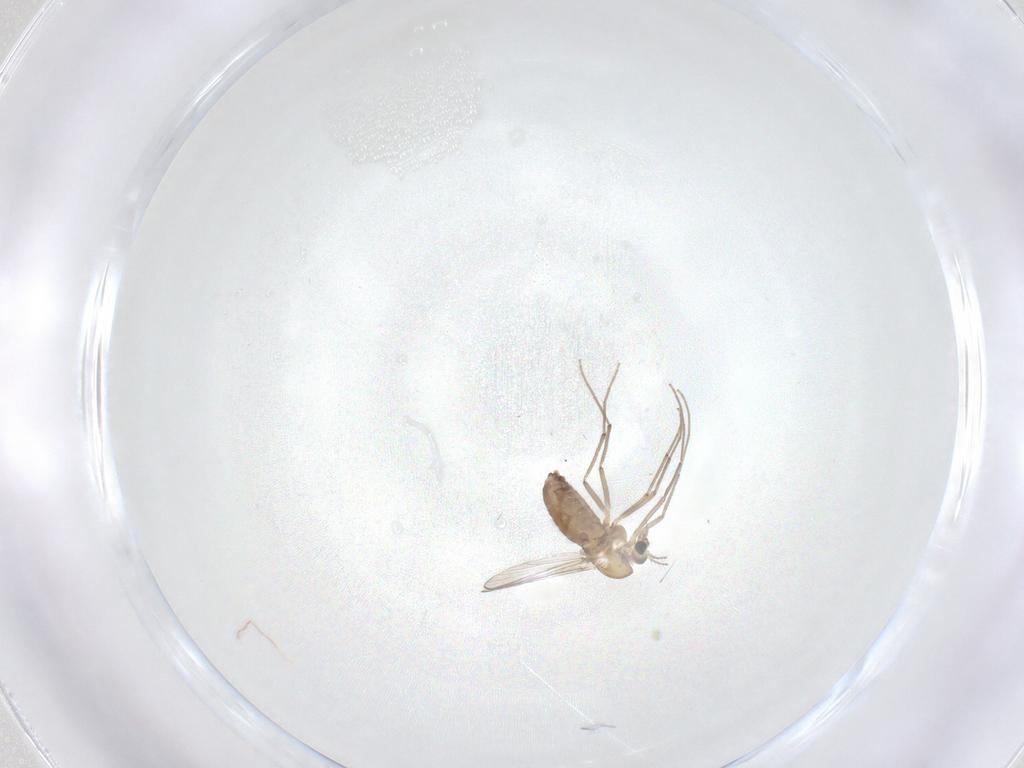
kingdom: Animalia
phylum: Arthropoda
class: Insecta
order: Diptera
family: Chironomidae
